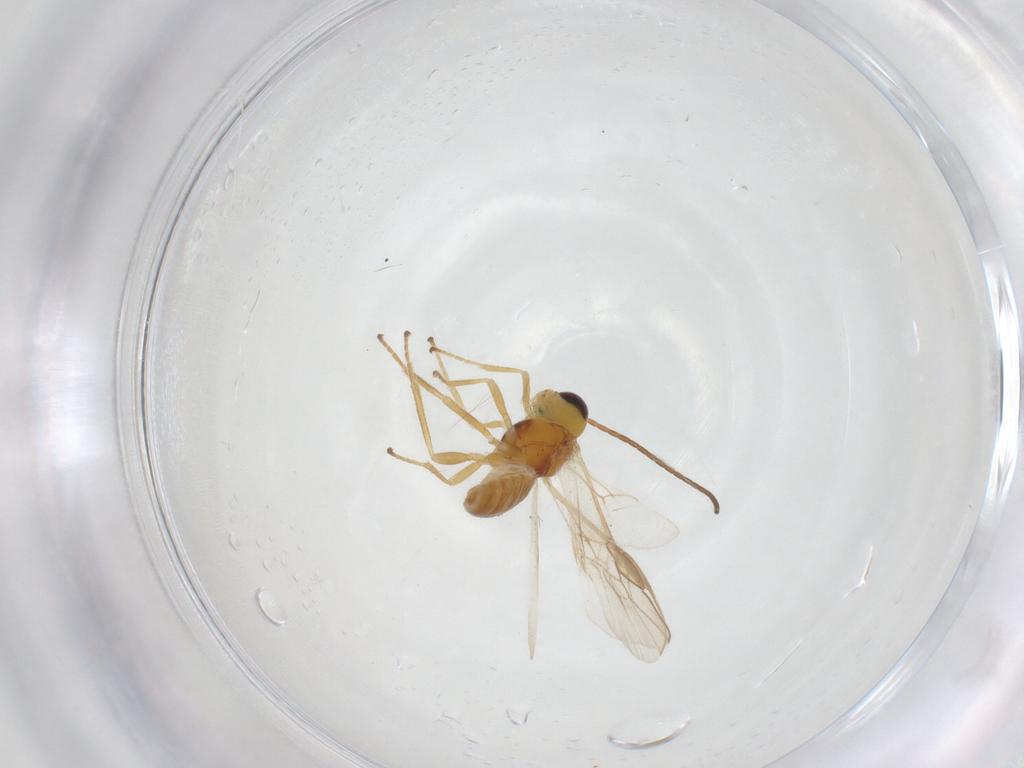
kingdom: Animalia
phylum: Arthropoda
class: Insecta
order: Hymenoptera
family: Braconidae
